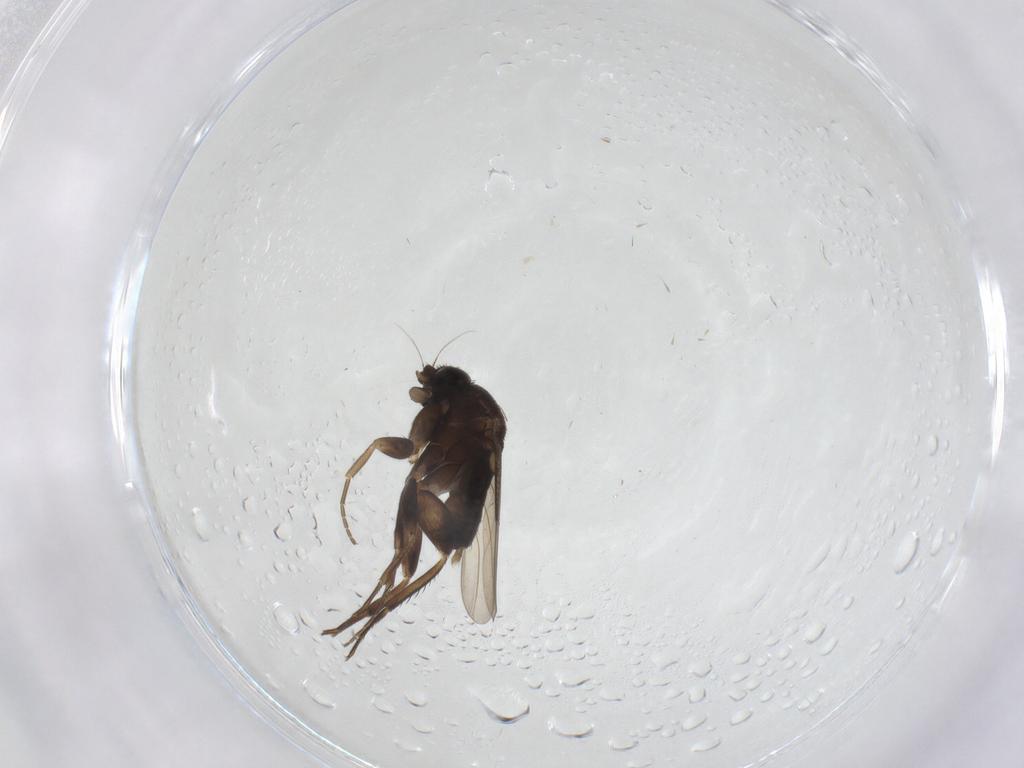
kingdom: Animalia
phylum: Arthropoda
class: Insecta
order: Diptera
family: Phoridae
